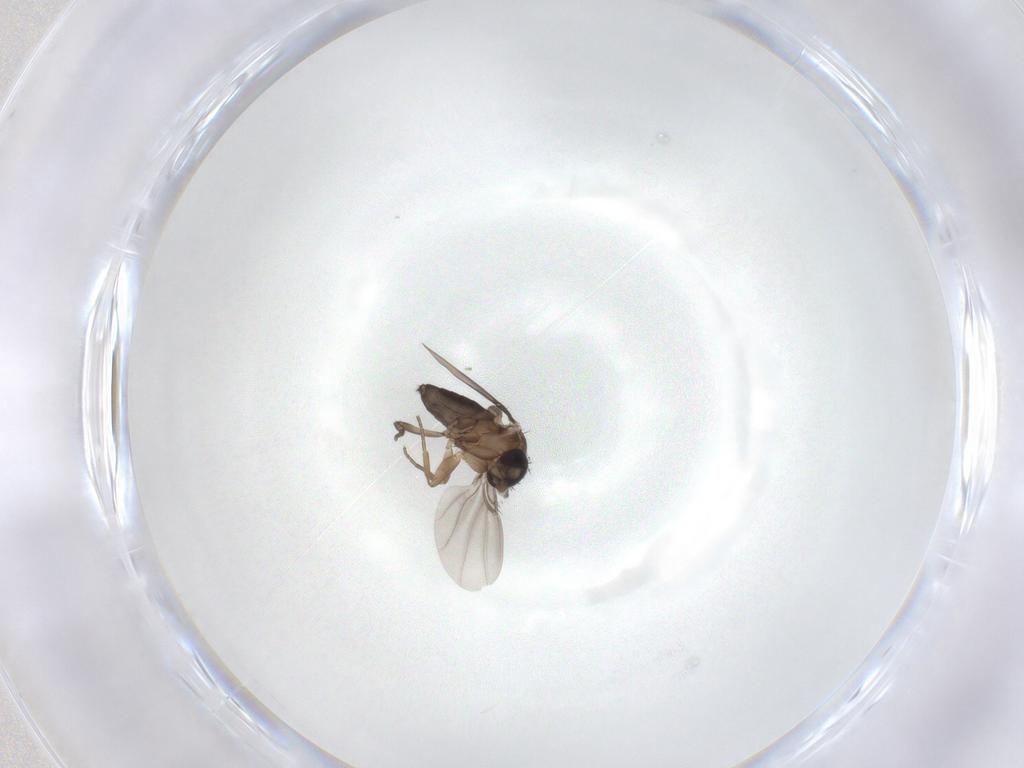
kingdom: Animalia
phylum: Arthropoda
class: Insecta
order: Diptera
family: Phoridae
